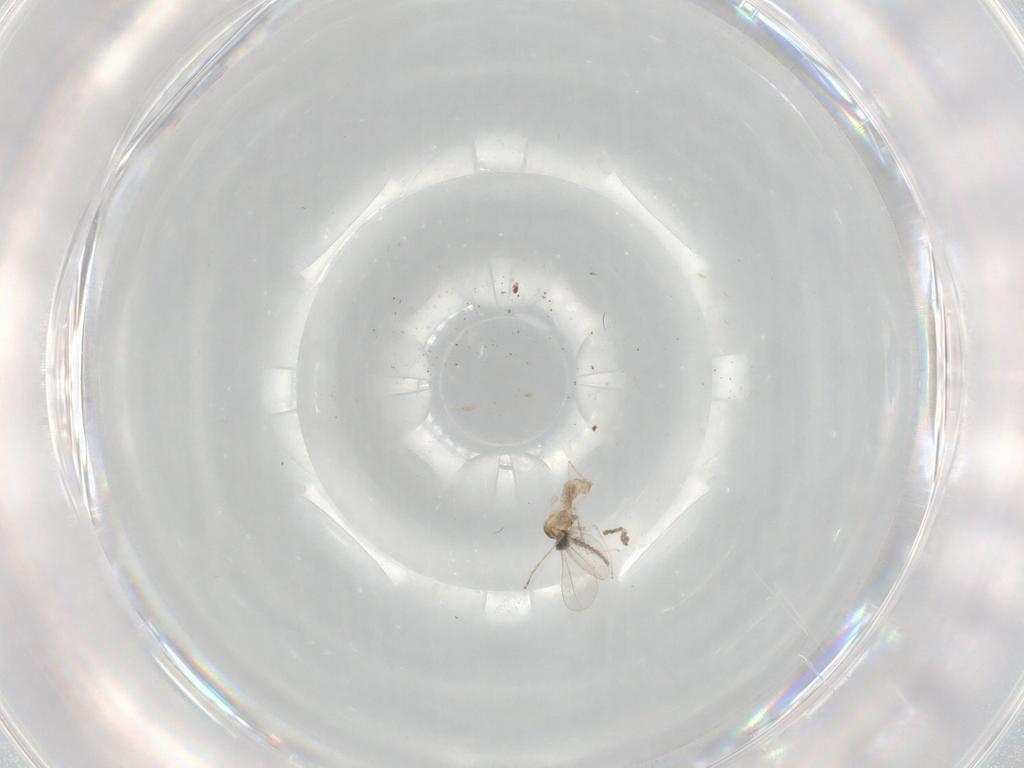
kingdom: Animalia
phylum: Arthropoda
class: Insecta
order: Diptera
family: Cecidomyiidae
